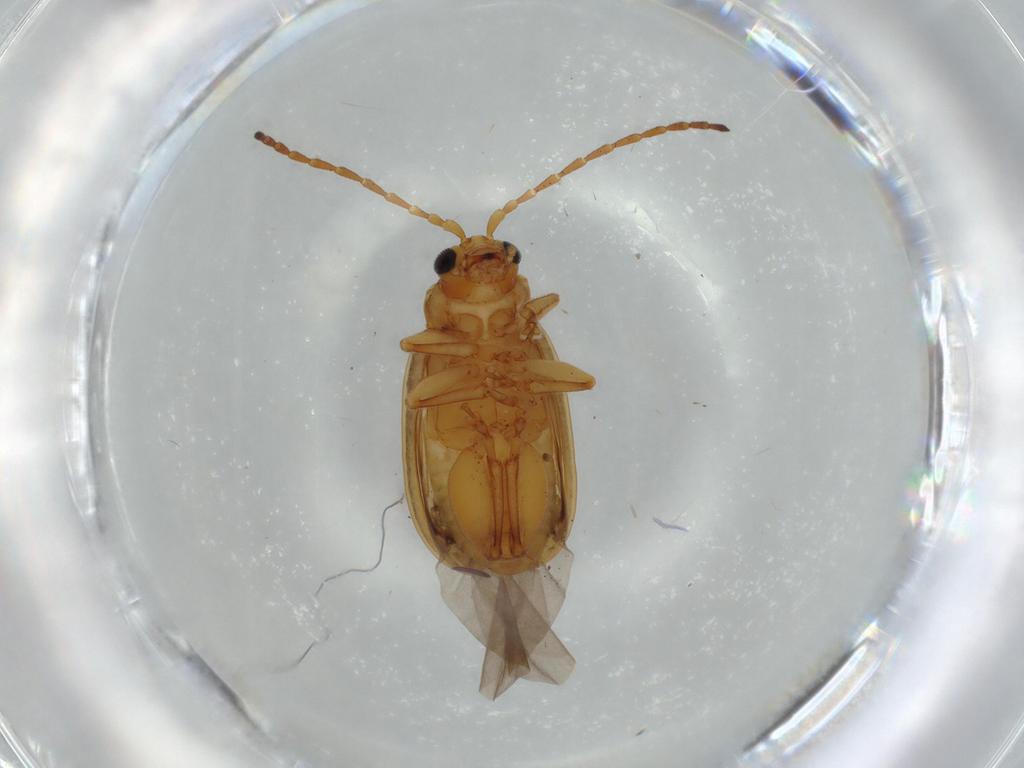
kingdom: Animalia
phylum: Arthropoda
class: Insecta
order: Coleoptera
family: Chrysomelidae
